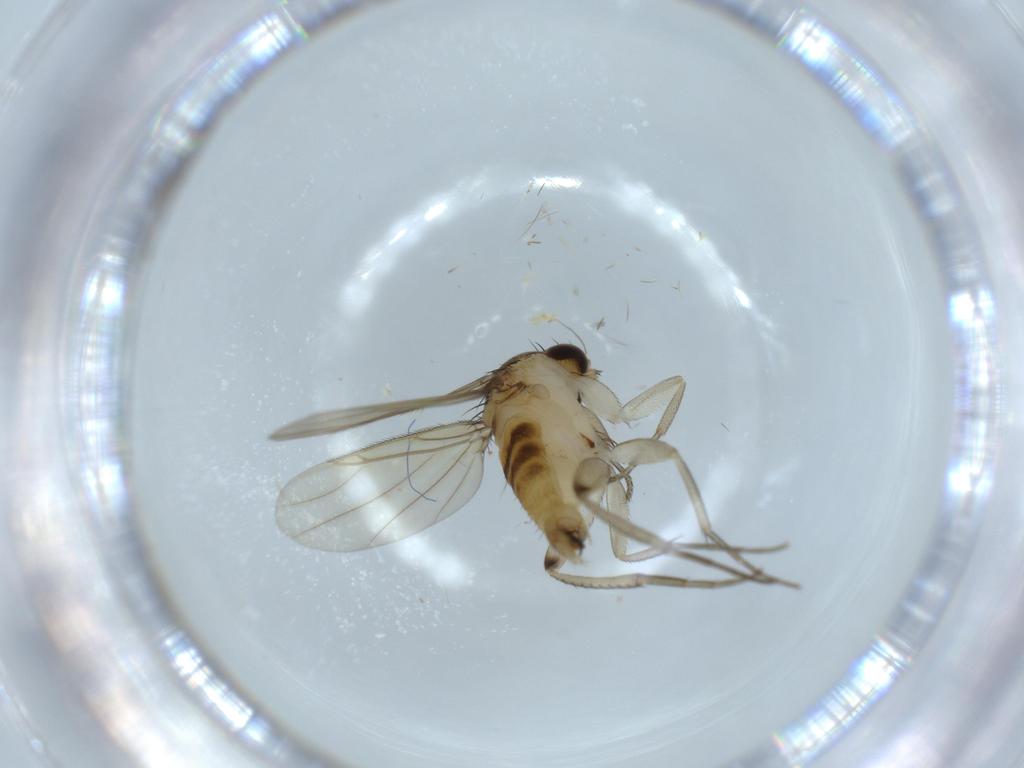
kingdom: Animalia
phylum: Arthropoda
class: Insecta
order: Diptera
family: Phoridae
